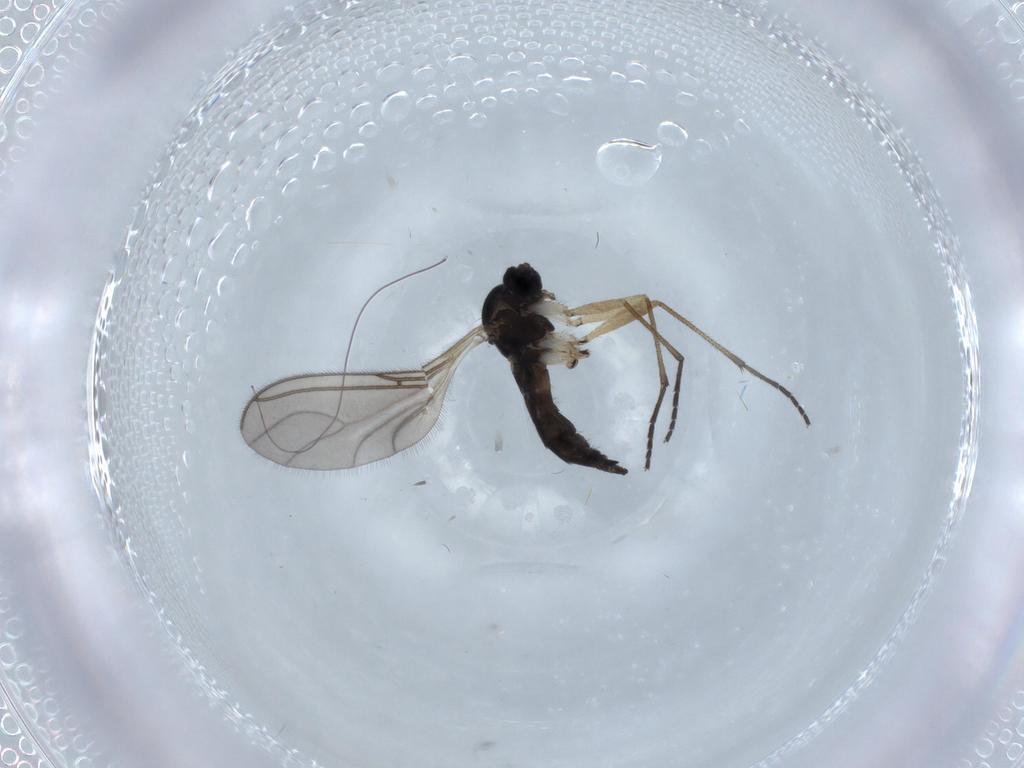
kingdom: Animalia
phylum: Arthropoda
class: Insecta
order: Diptera
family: Sciaridae
